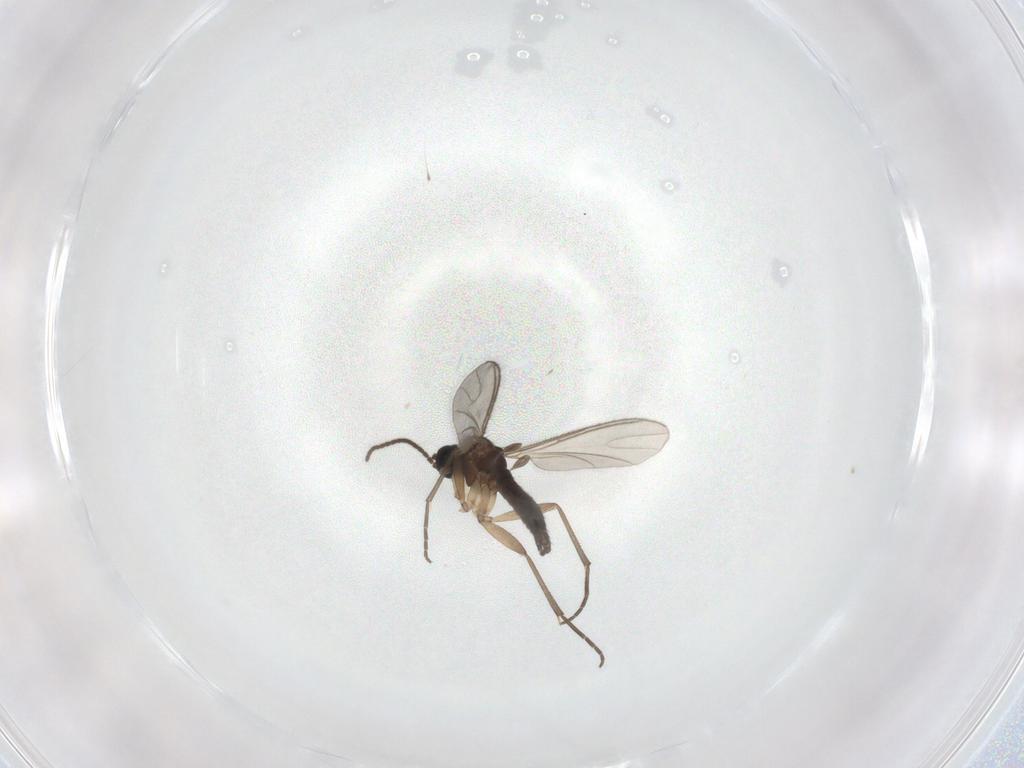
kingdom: Animalia
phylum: Arthropoda
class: Insecta
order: Diptera
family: Sciaridae
